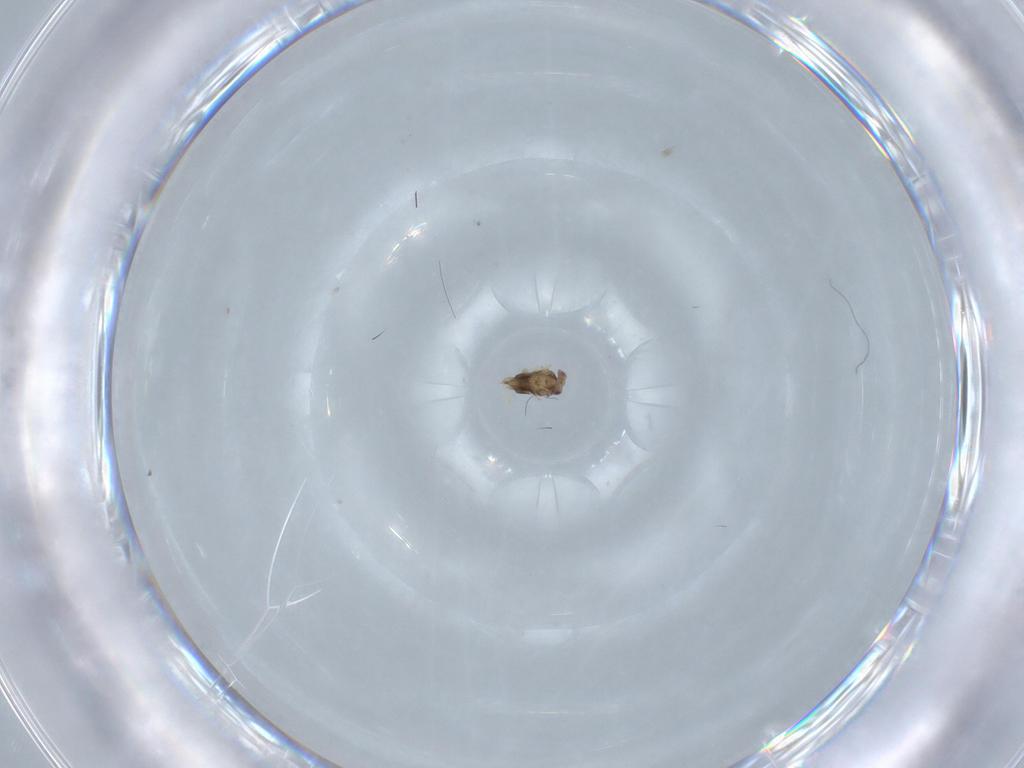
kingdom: Animalia
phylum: Arthropoda
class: Insecta
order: Hymenoptera
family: Trichogrammatidae
